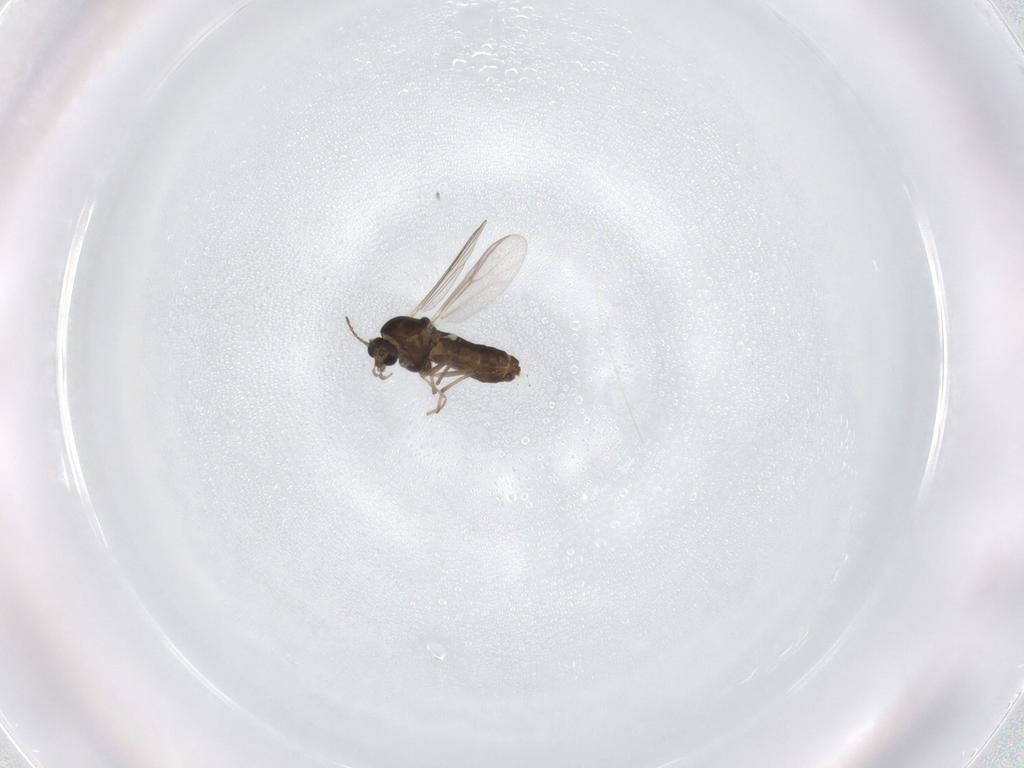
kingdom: Animalia
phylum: Arthropoda
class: Insecta
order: Diptera
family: Chironomidae
